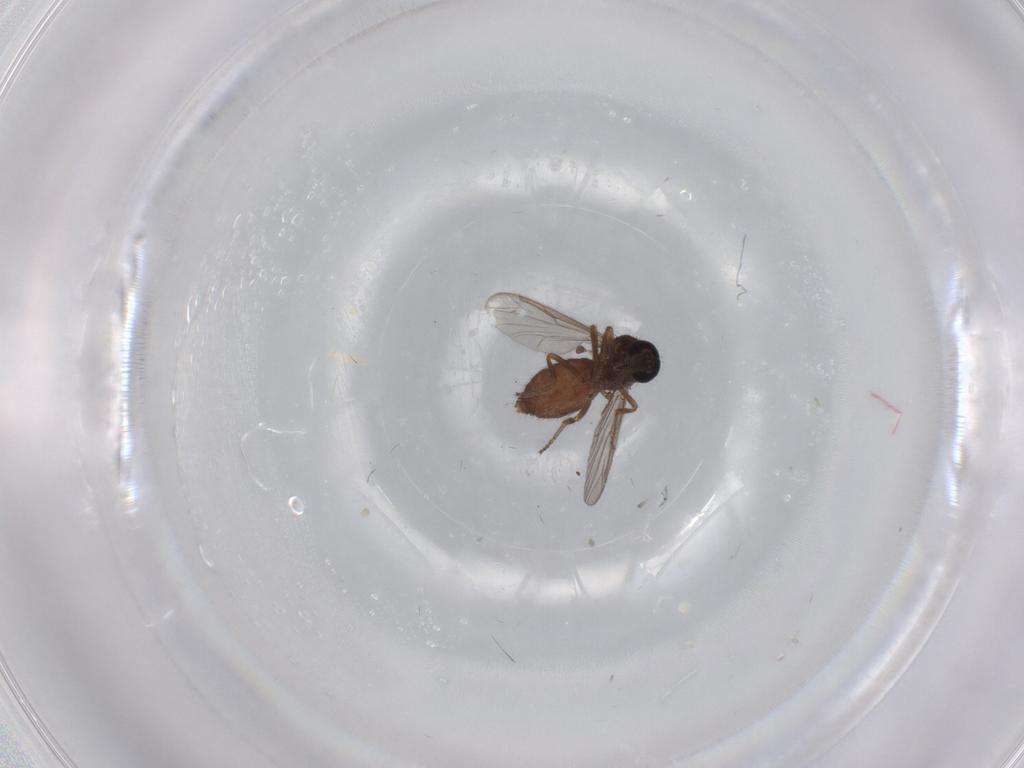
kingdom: Animalia
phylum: Arthropoda
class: Insecta
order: Diptera
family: Ceratopogonidae
